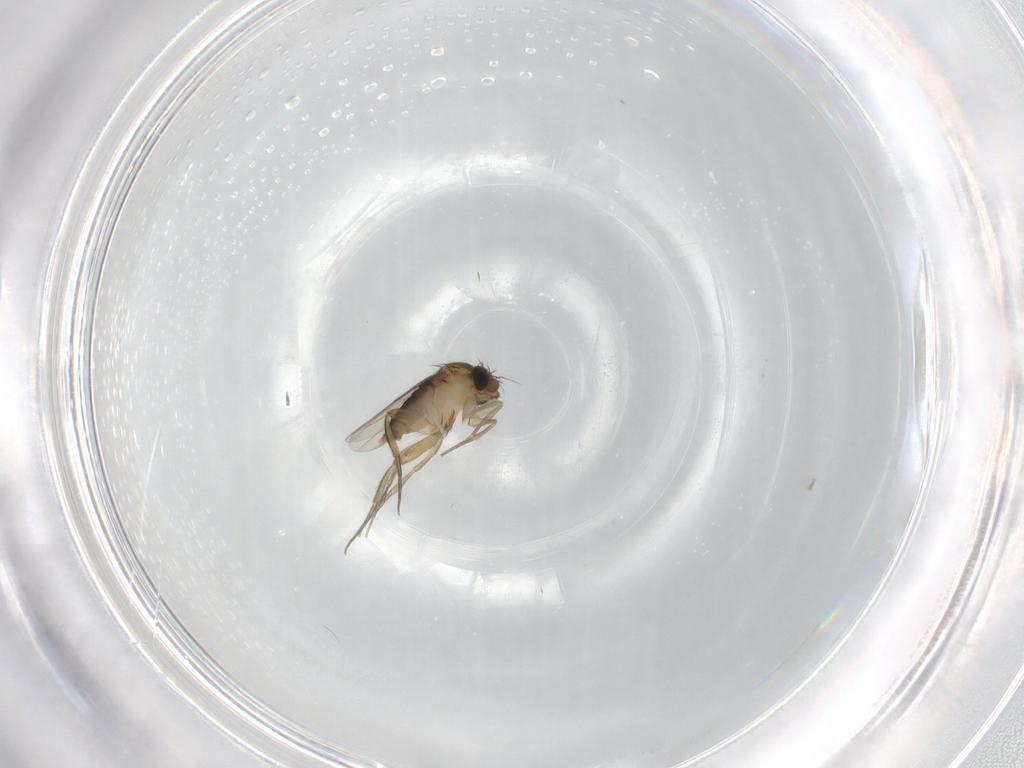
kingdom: Animalia
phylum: Arthropoda
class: Insecta
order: Diptera
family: Phoridae
